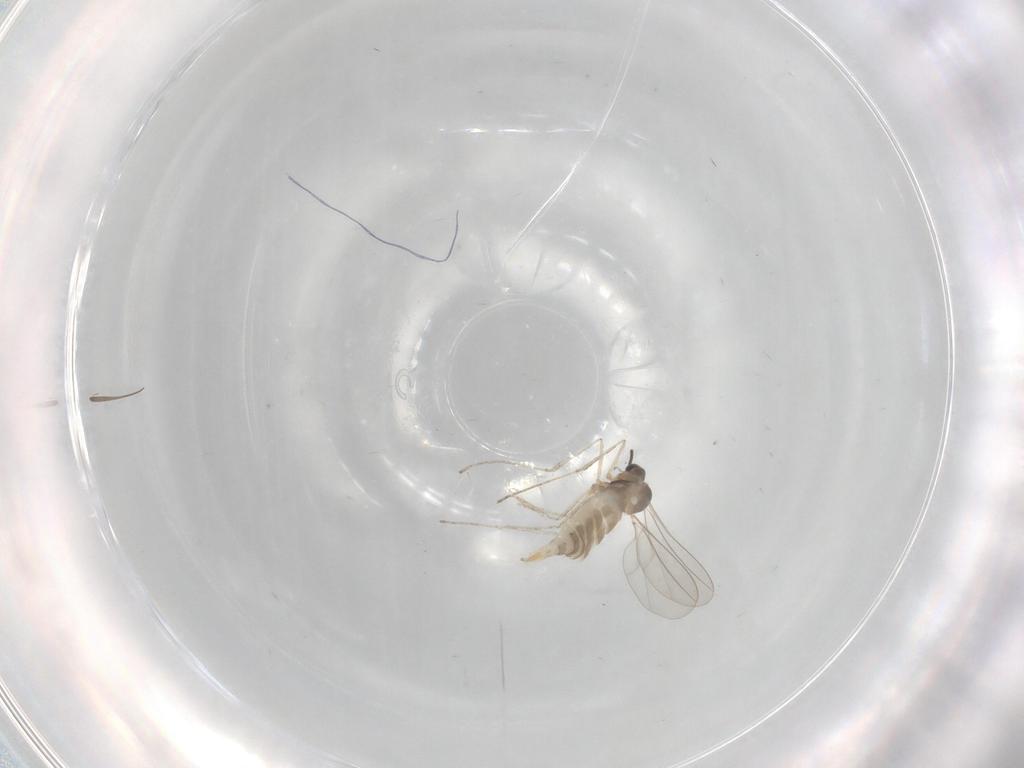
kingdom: Animalia
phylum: Arthropoda
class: Insecta
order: Diptera
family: Cecidomyiidae
